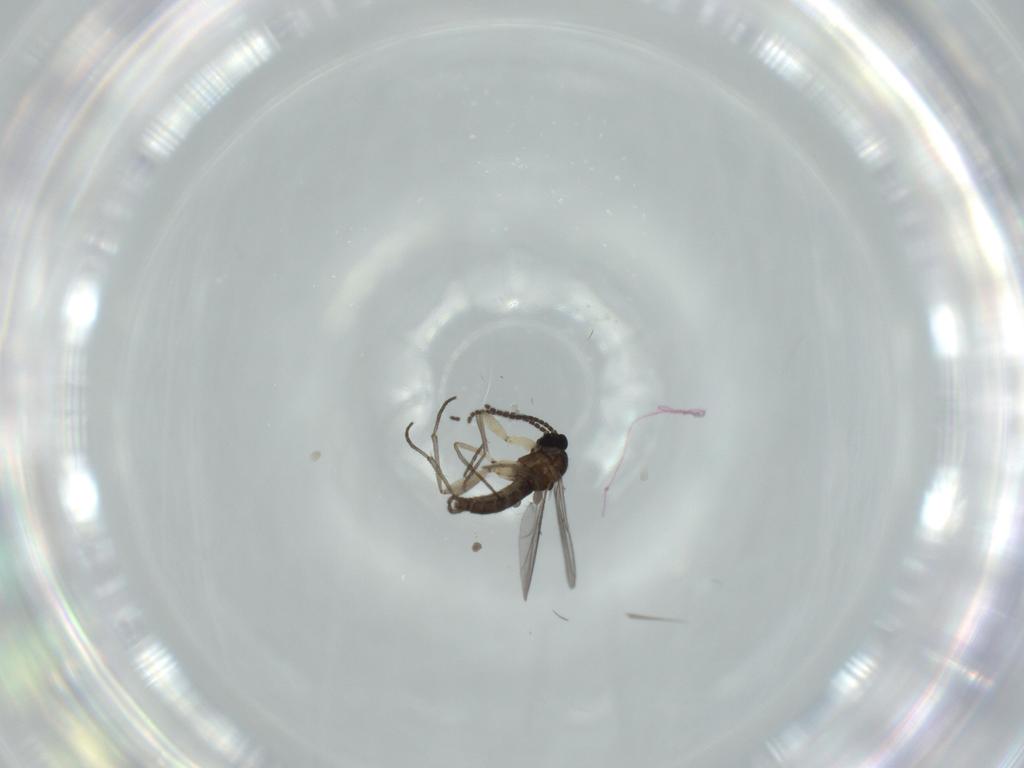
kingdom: Animalia
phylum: Arthropoda
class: Insecta
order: Diptera
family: Sciaridae
